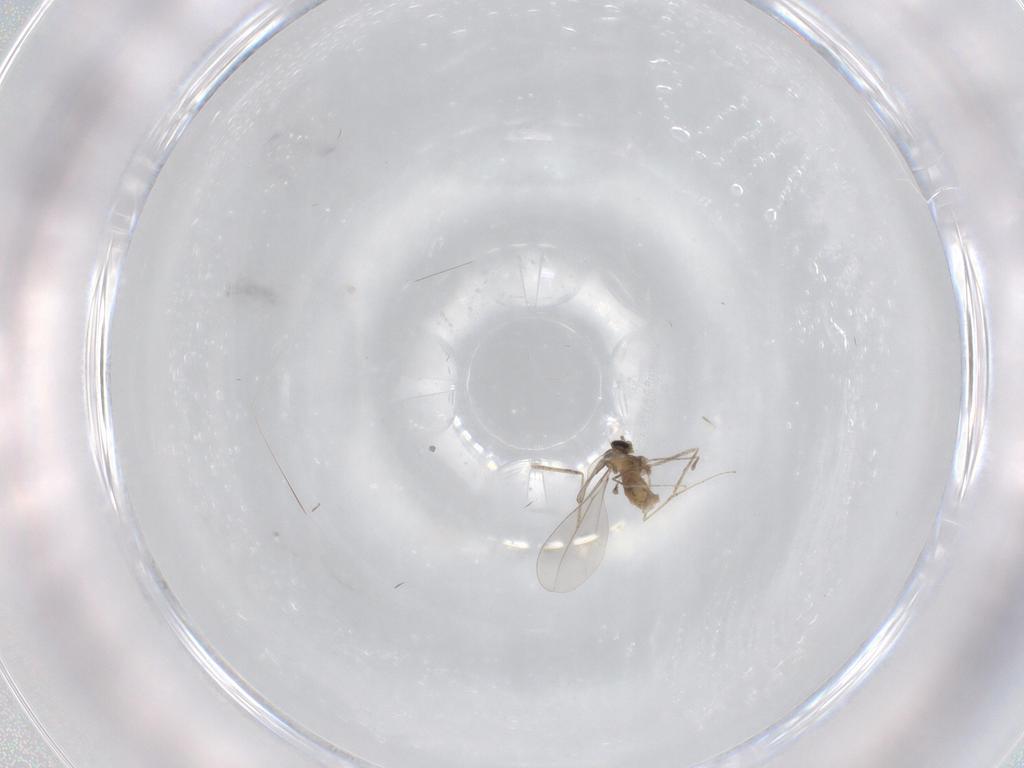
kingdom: Animalia
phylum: Arthropoda
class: Insecta
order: Diptera
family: Cecidomyiidae
